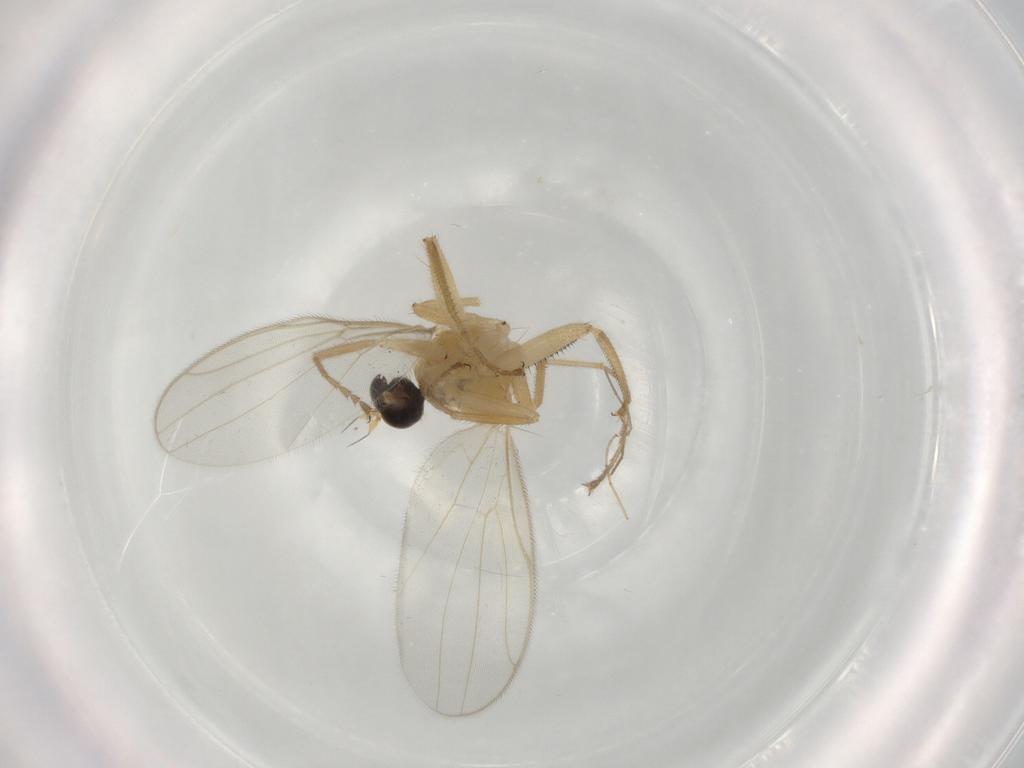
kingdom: Animalia
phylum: Arthropoda
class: Insecta
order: Diptera
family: Hybotidae
